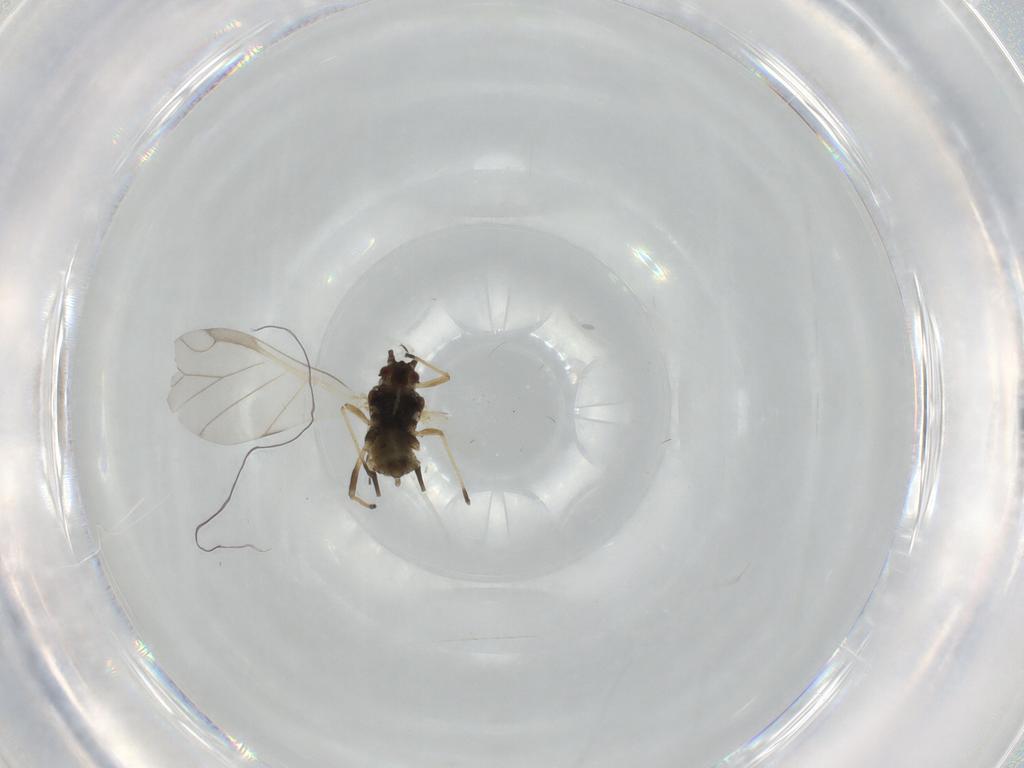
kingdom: Animalia
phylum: Arthropoda
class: Insecta
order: Hemiptera
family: Aphididae
